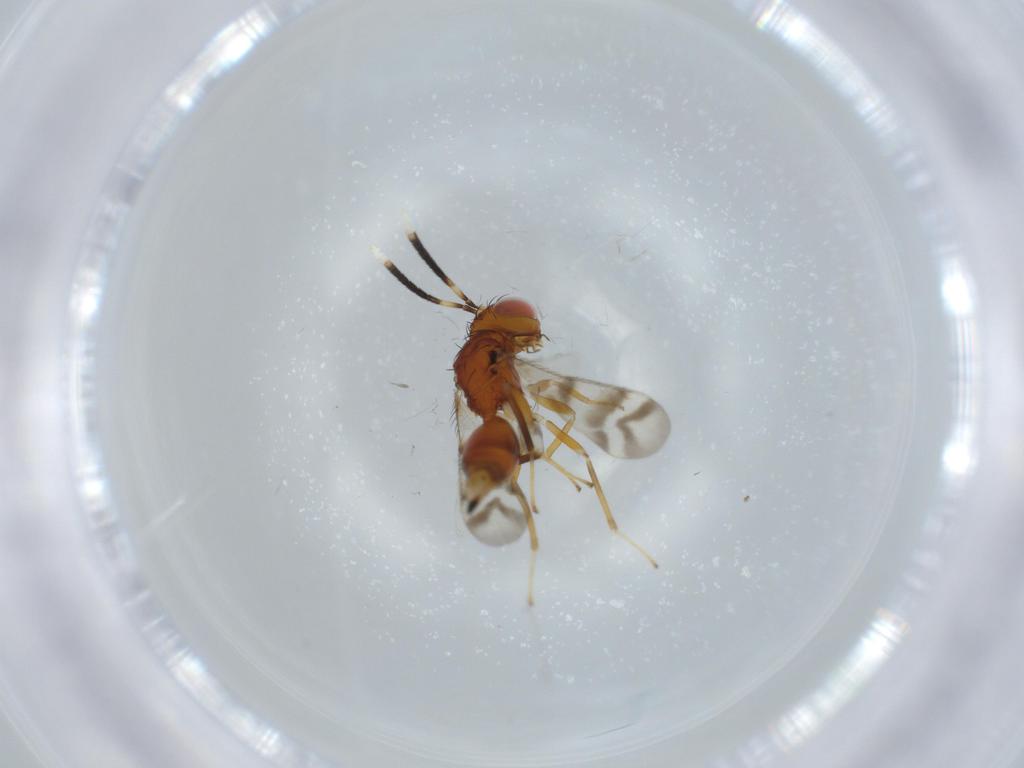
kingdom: Animalia
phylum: Arthropoda
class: Insecta
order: Hymenoptera
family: Diparidae
